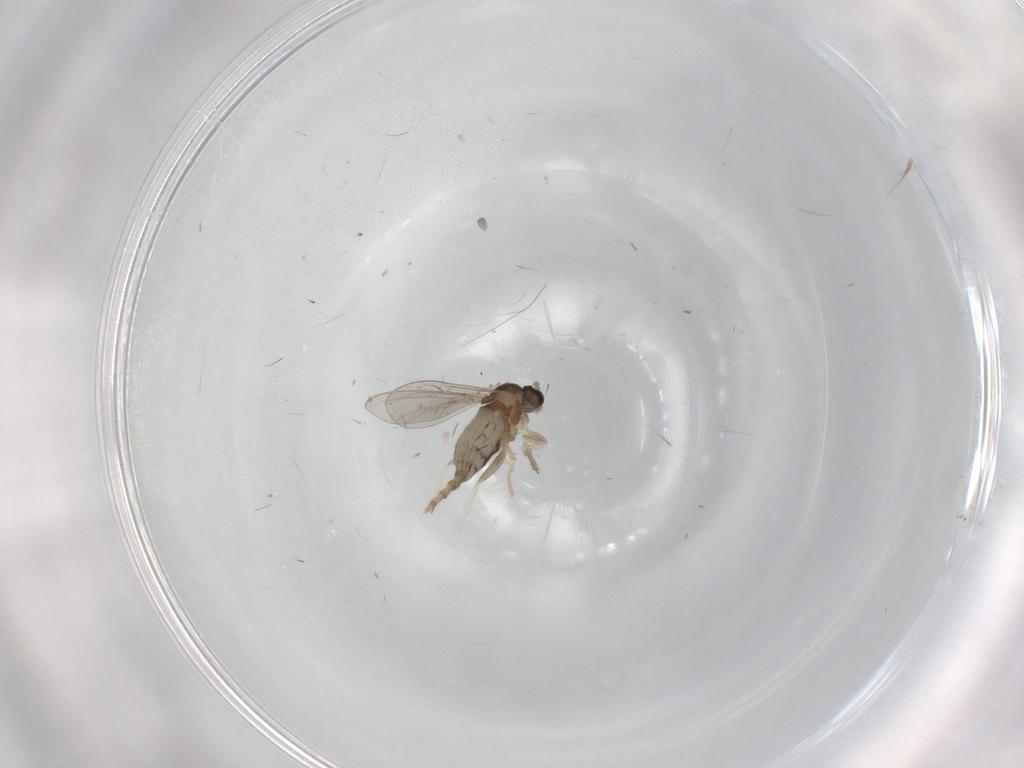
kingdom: Animalia
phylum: Arthropoda
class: Insecta
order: Diptera
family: Cecidomyiidae
